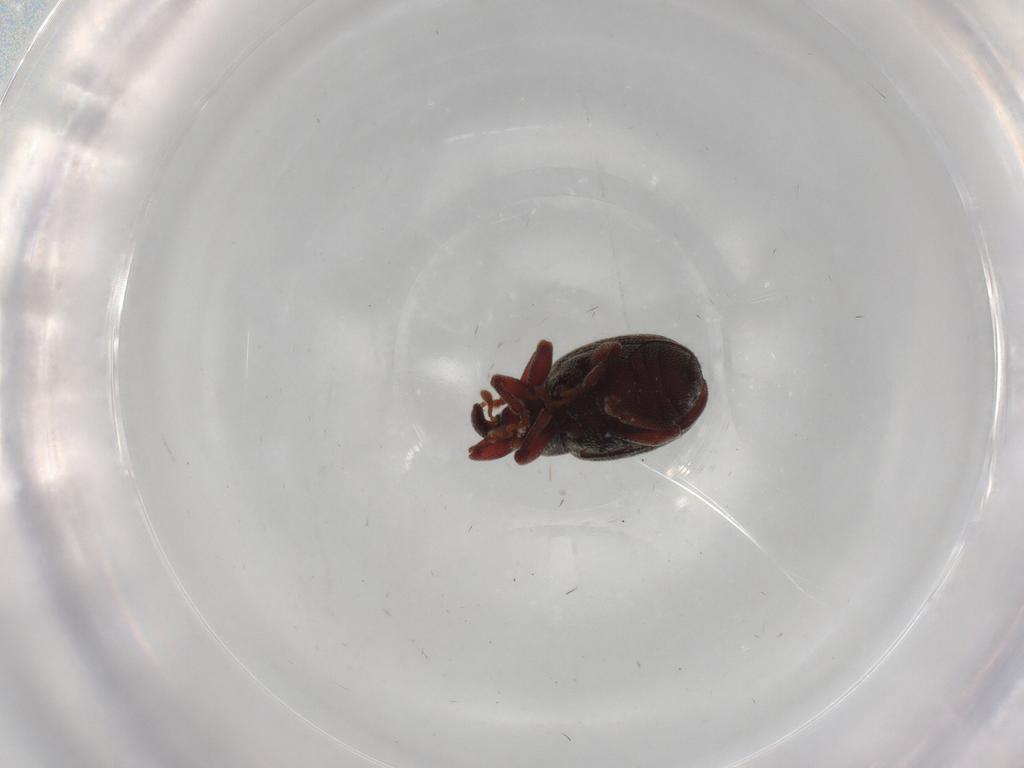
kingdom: Animalia
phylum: Arthropoda
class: Insecta
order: Coleoptera
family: Curculionidae
